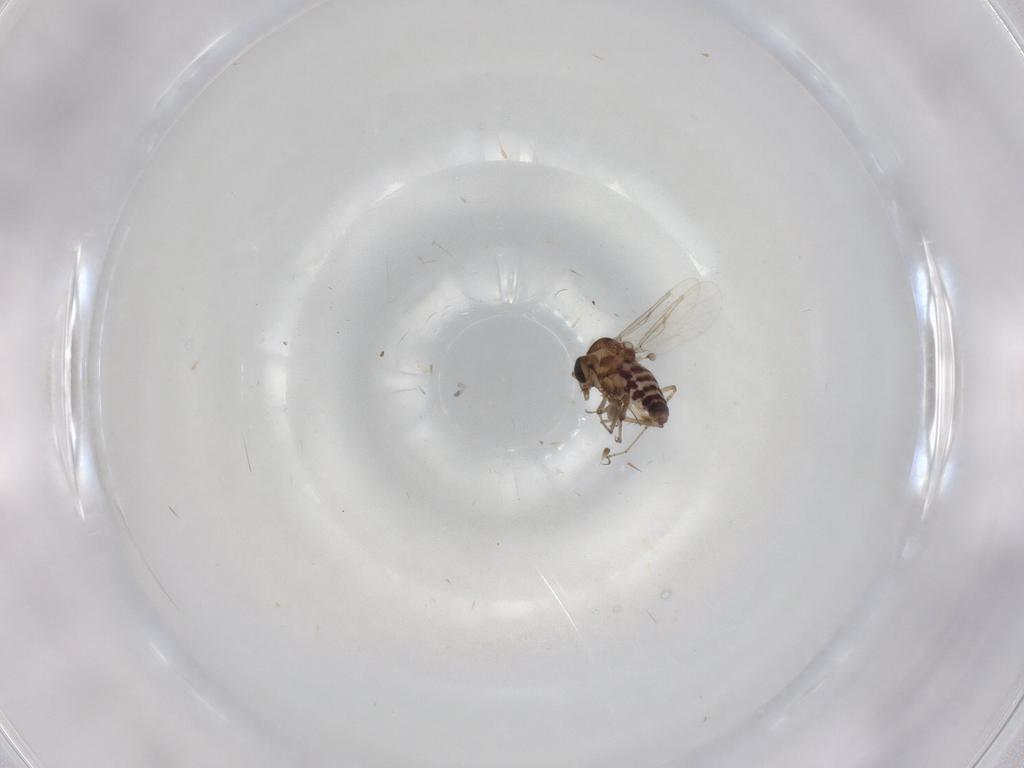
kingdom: Animalia
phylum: Arthropoda
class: Insecta
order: Diptera
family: Ceratopogonidae
